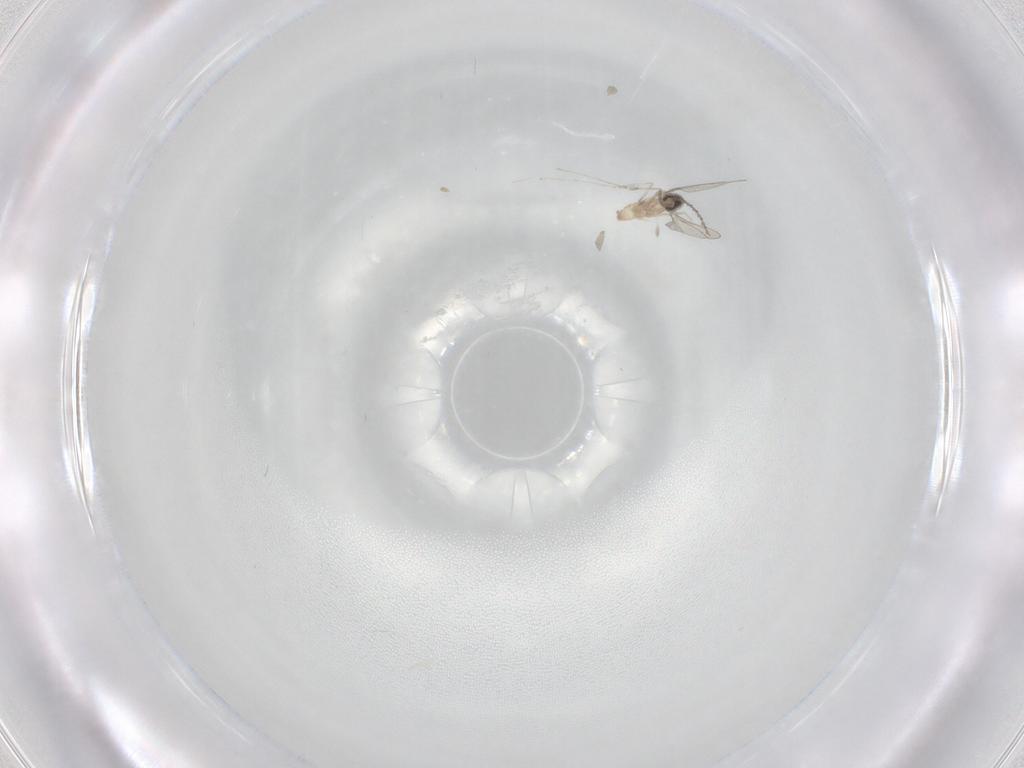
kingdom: Animalia
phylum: Arthropoda
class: Insecta
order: Diptera
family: Cecidomyiidae
